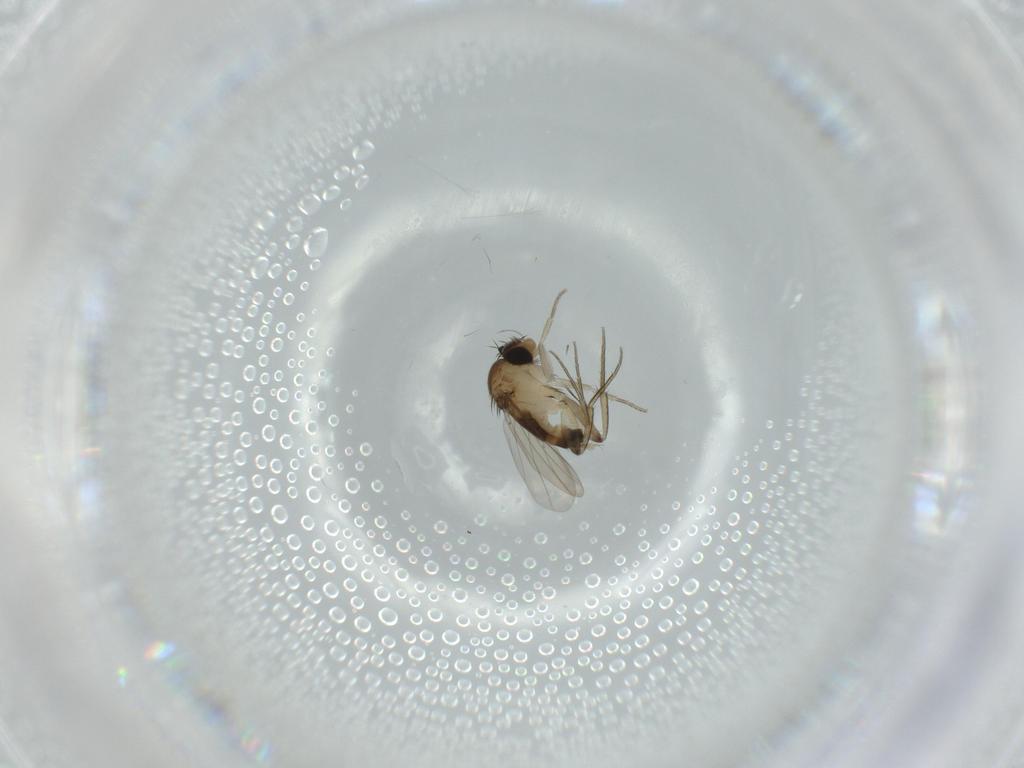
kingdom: Animalia
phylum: Arthropoda
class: Insecta
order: Diptera
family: Phoridae
